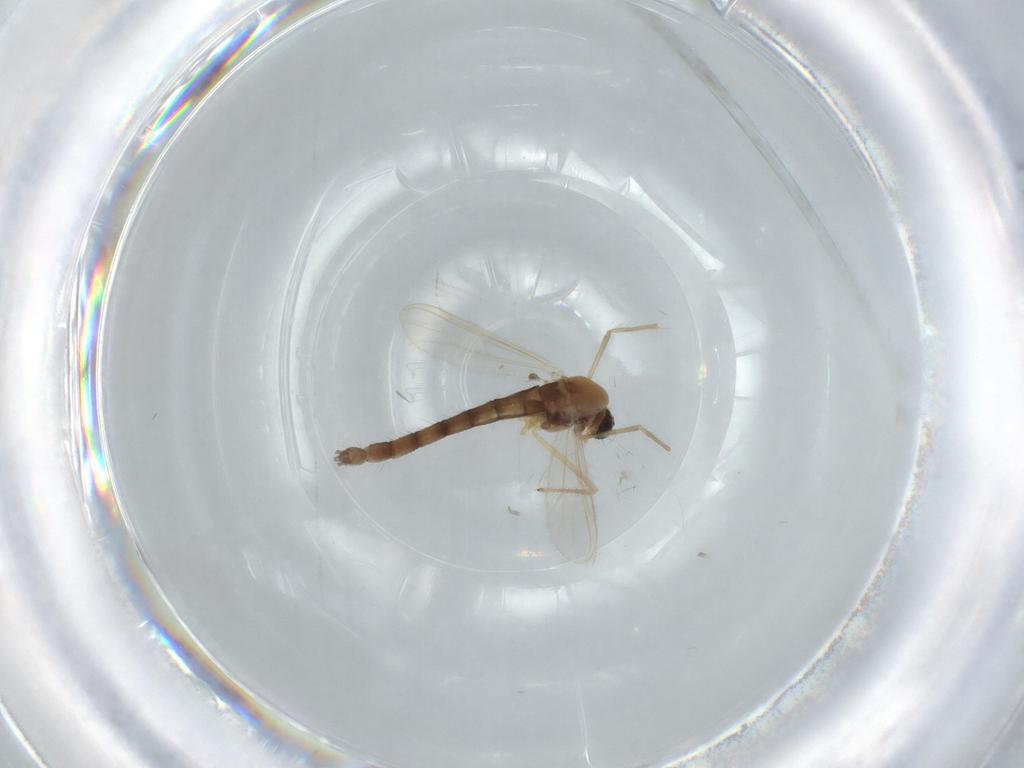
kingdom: Animalia
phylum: Arthropoda
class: Insecta
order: Diptera
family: Chironomidae
